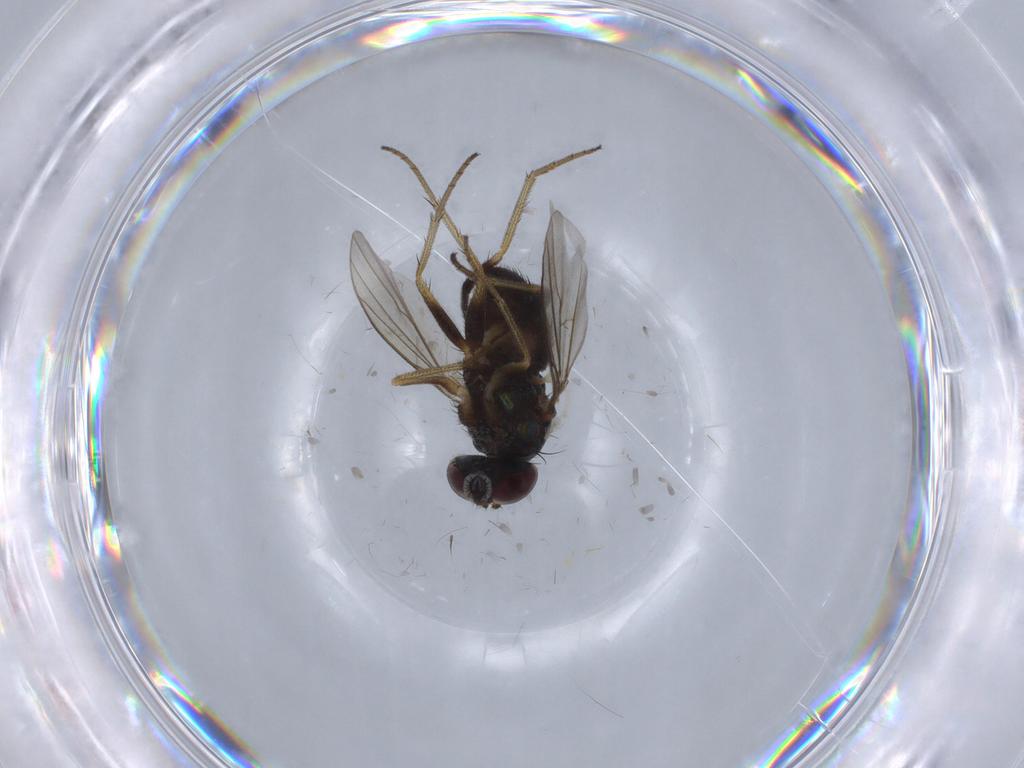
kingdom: Animalia
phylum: Arthropoda
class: Insecta
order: Diptera
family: Dolichopodidae
